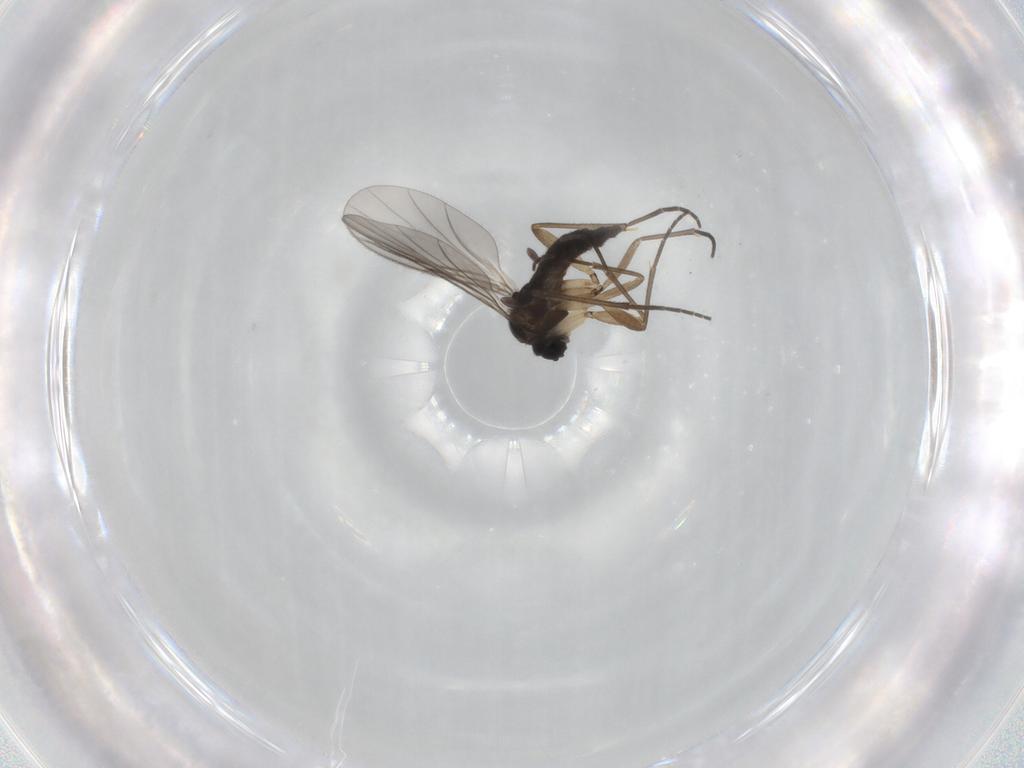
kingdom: Animalia
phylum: Arthropoda
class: Insecta
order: Diptera
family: Sciaridae
